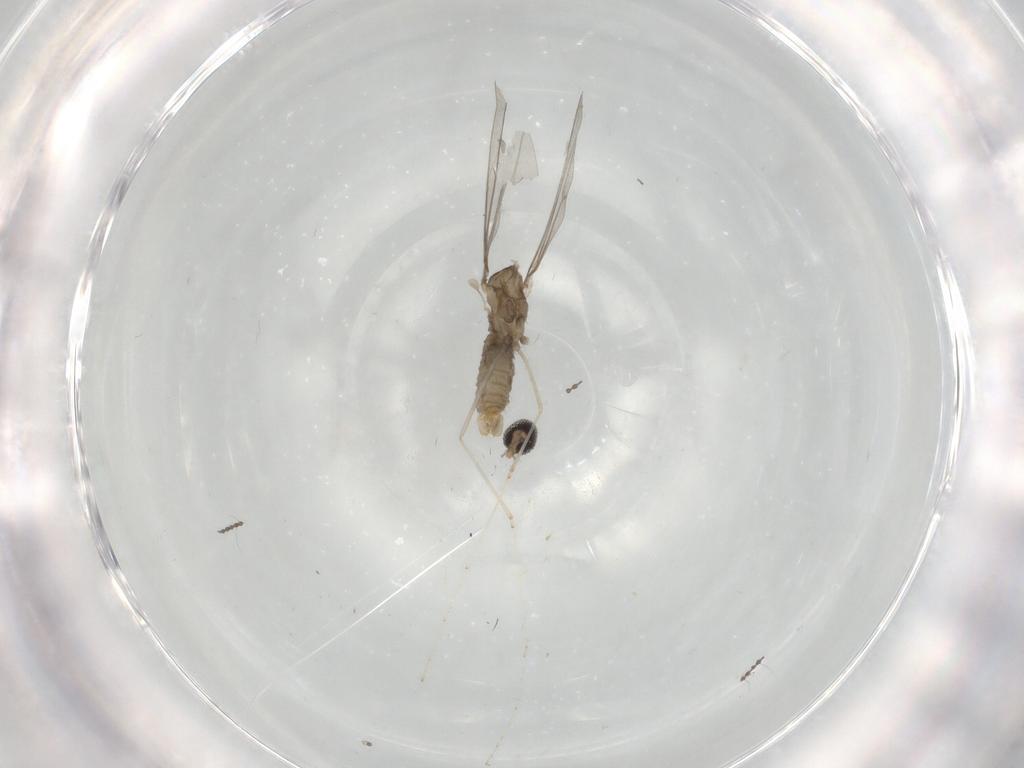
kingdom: Animalia
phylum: Arthropoda
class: Insecta
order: Diptera
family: Cecidomyiidae
